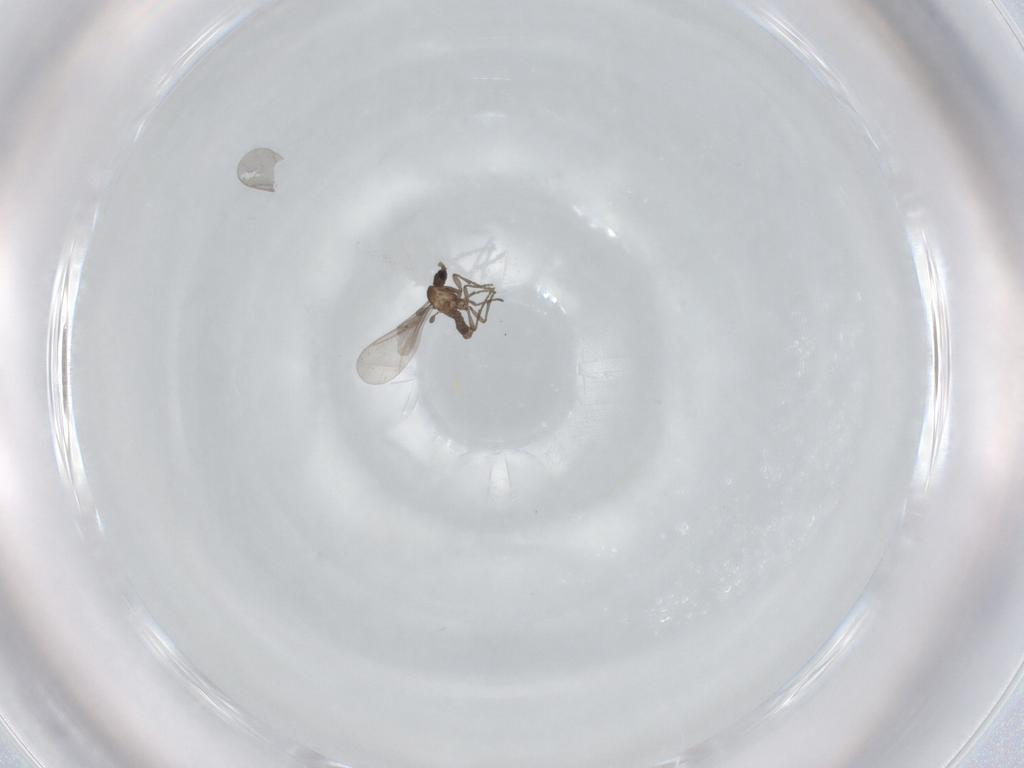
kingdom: Animalia
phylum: Arthropoda
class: Insecta
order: Diptera
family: Sciaridae
